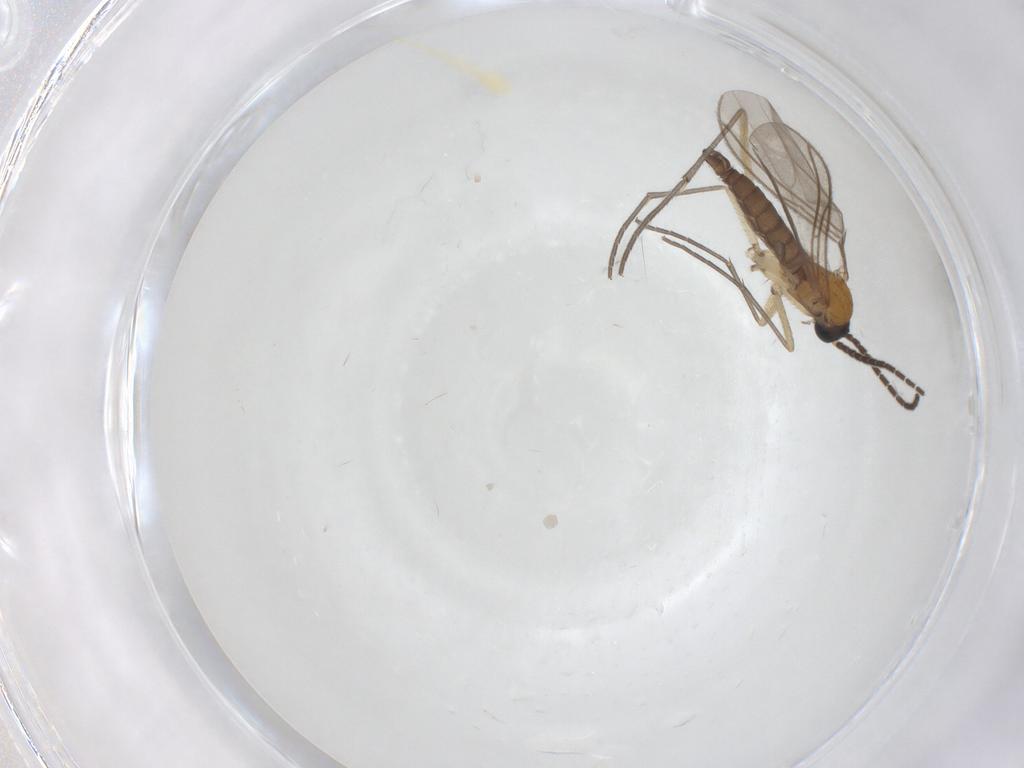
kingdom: Animalia
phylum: Arthropoda
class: Insecta
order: Diptera
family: Sciaridae
